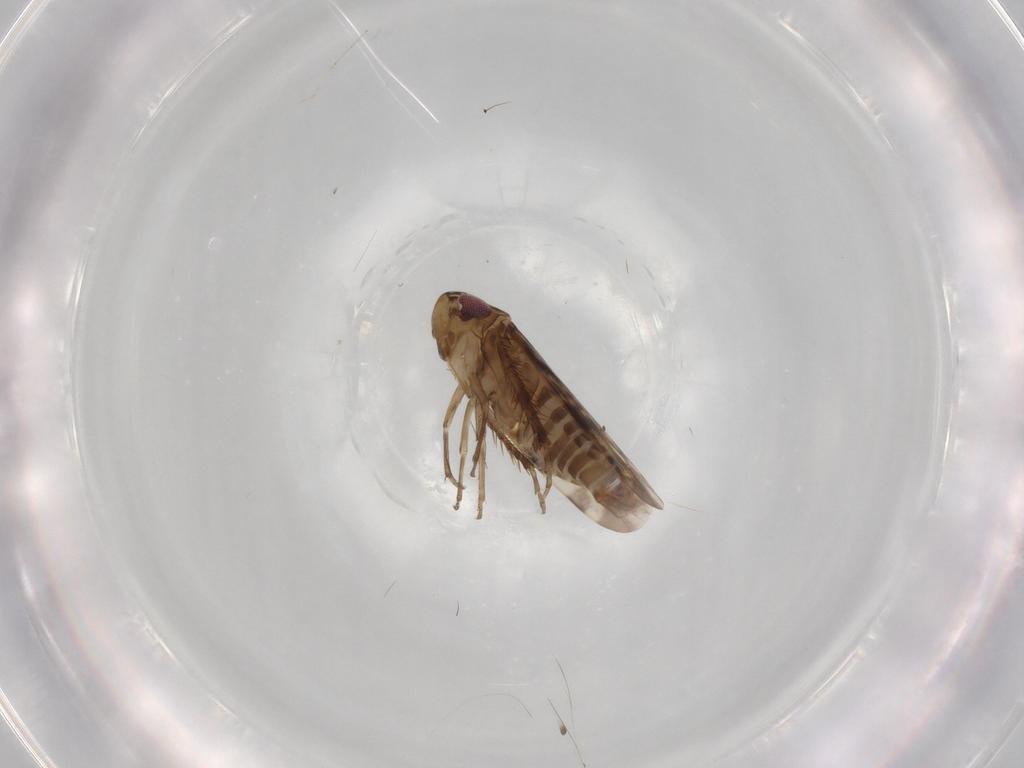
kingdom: Animalia
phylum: Arthropoda
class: Insecta
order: Hemiptera
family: Cicadellidae
